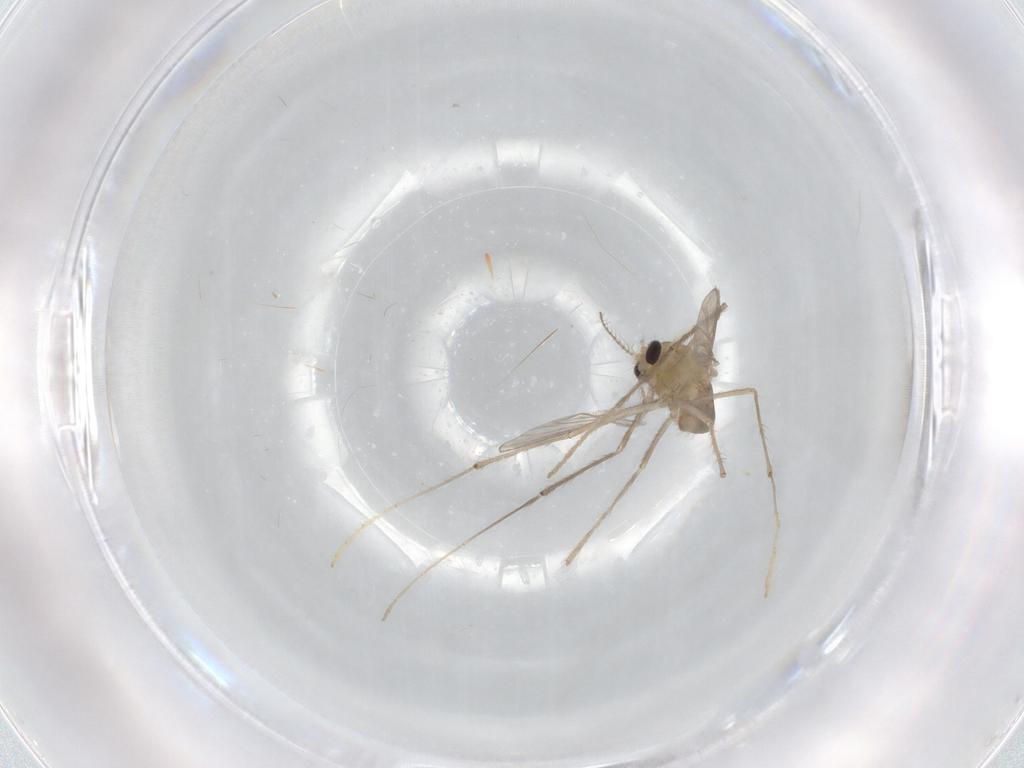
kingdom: Animalia
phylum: Arthropoda
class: Insecta
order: Diptera
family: Chironomidae
